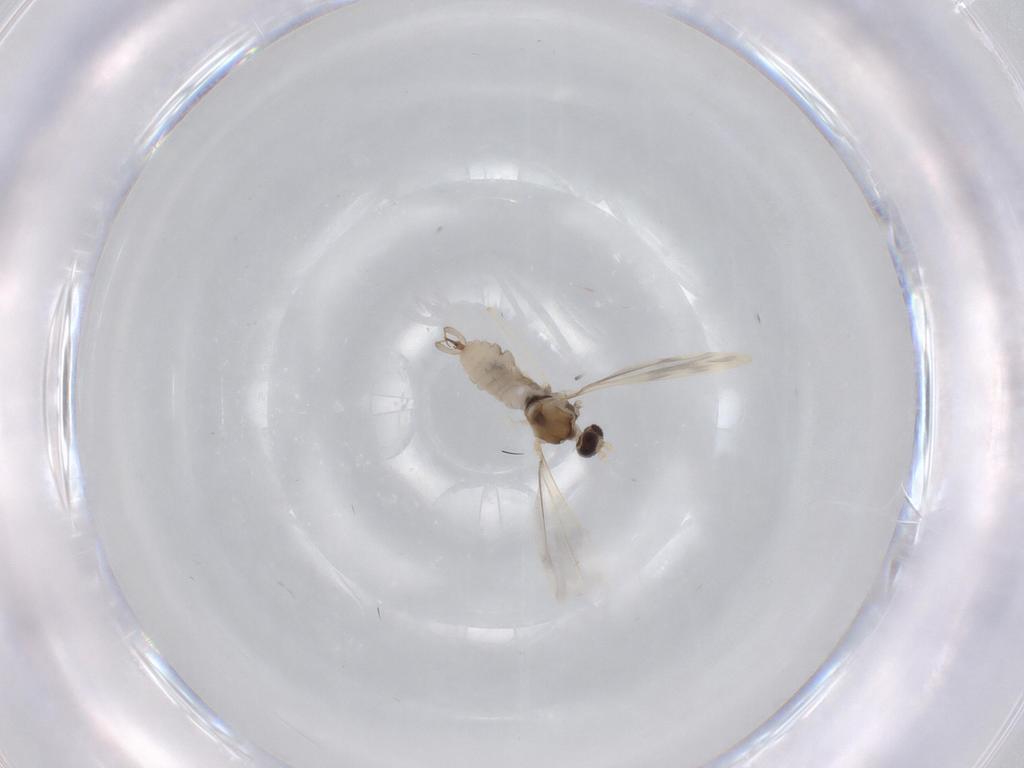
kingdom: Animalia
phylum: Arthropoda
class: Insecta
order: Diptera
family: Cecidomyiidae
